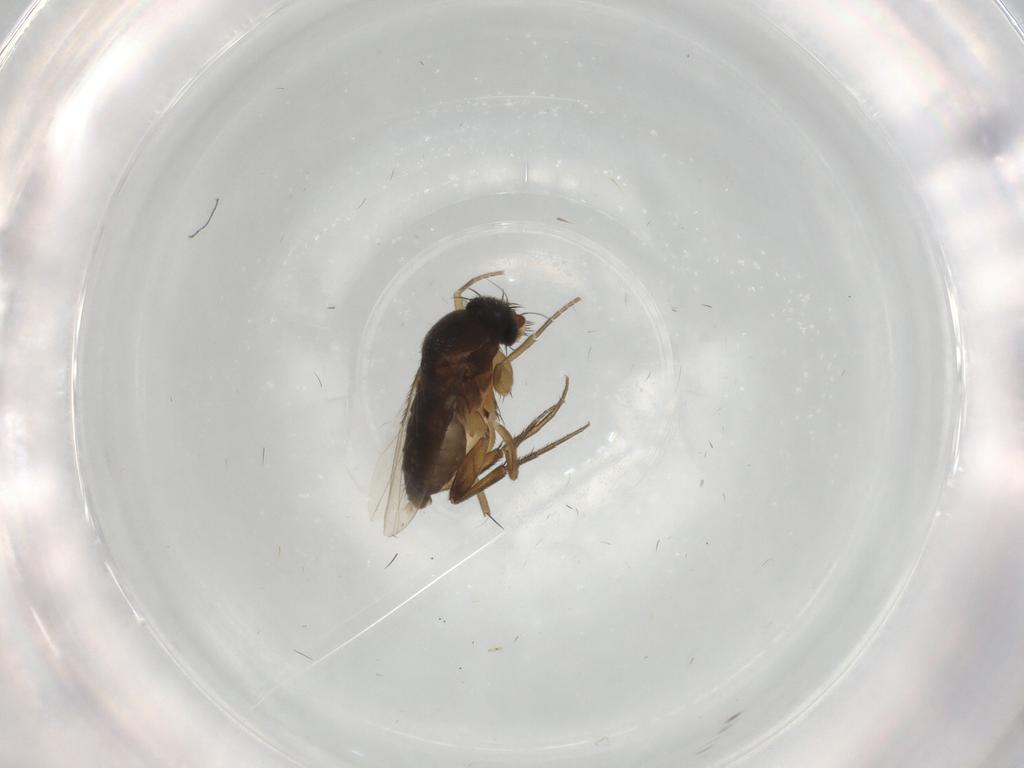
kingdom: Animalia
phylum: Arthropoda
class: Insecta
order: Diptera
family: Phoridae
